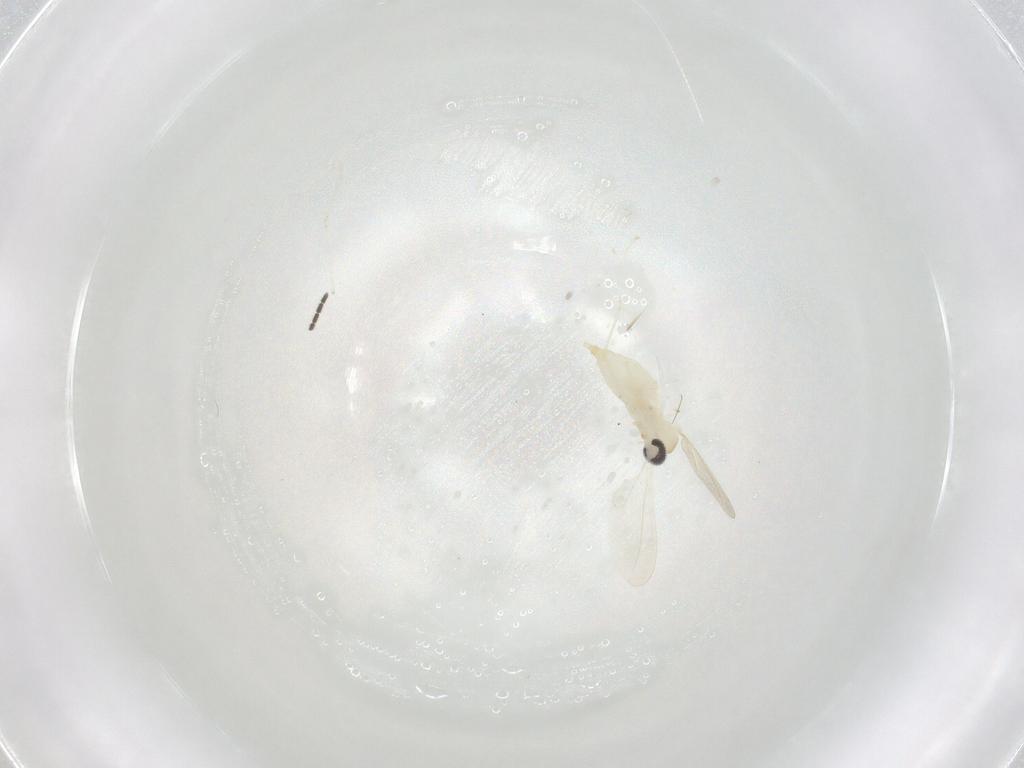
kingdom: Animalia
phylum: Arthropoda
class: Insecta
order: Diptera
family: Cecidomyiidae
